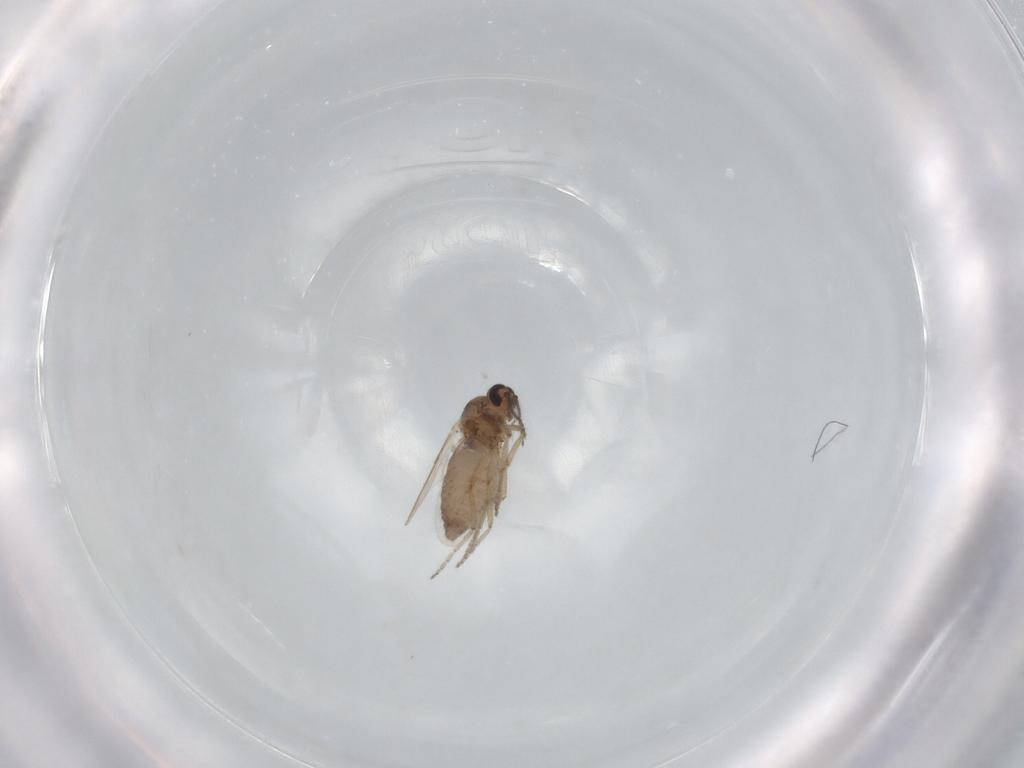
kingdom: Animalia
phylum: Arthropoda
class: Insecta
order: Diptera
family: Ceratopogonidae
